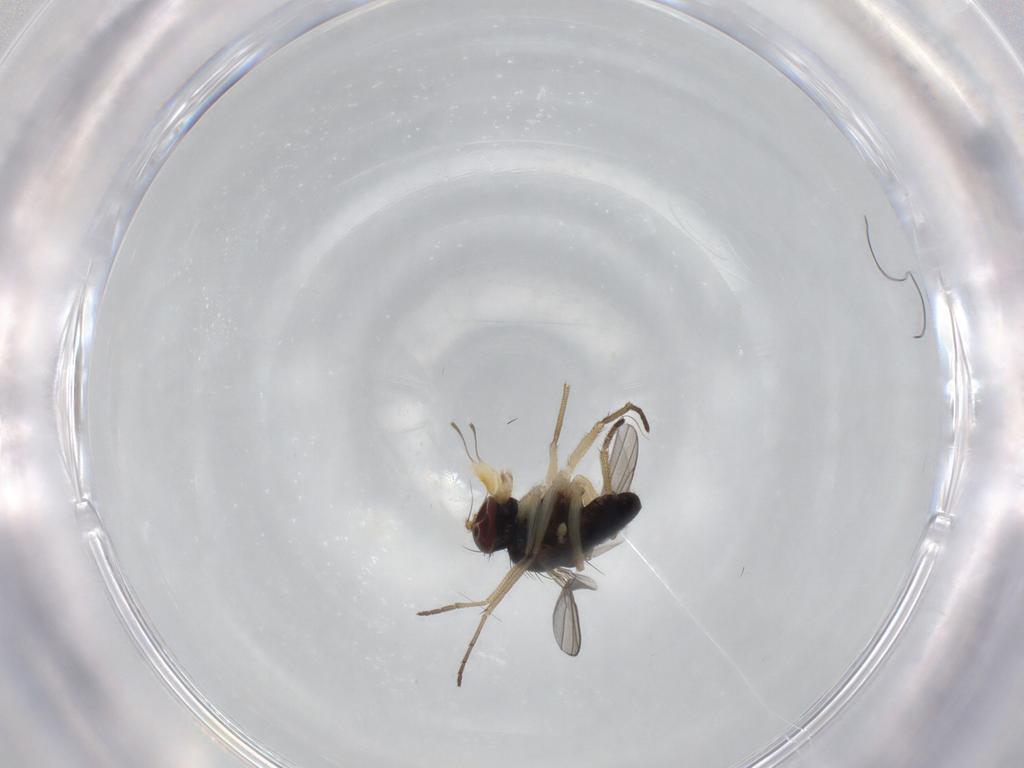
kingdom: Animalia
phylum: Arthropoda
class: Insecta
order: Diptera
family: Dolichopodidae
